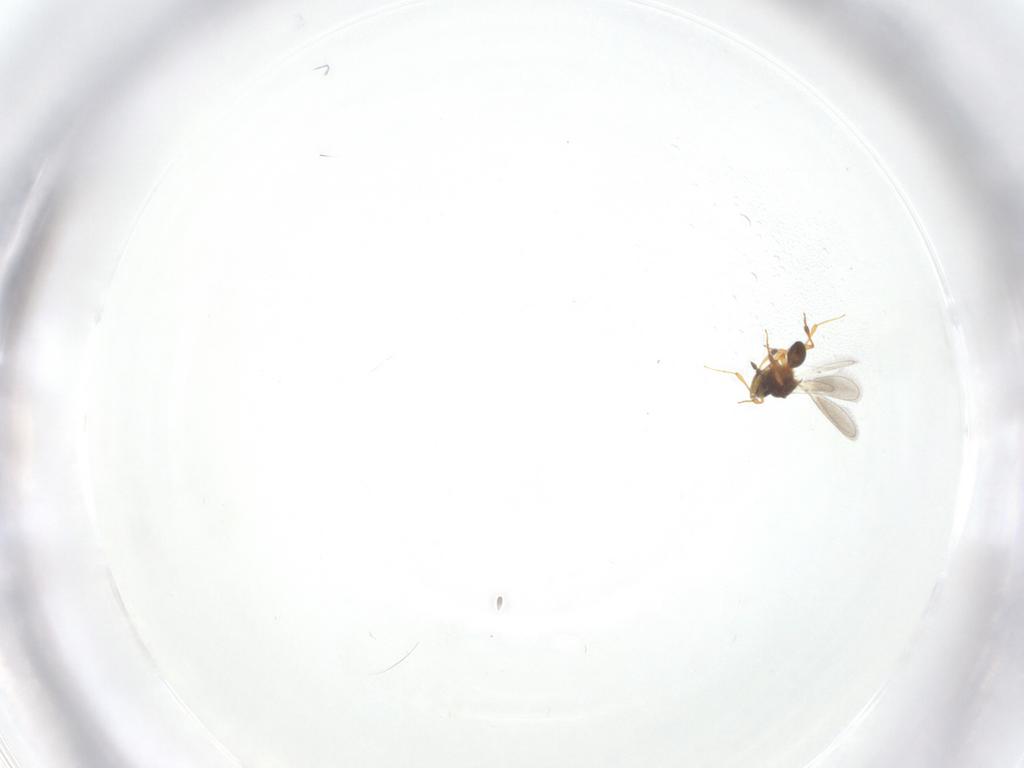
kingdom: Animalia
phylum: Arthropoda
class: Insecta
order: Hymenoptera
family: Platygastridae
